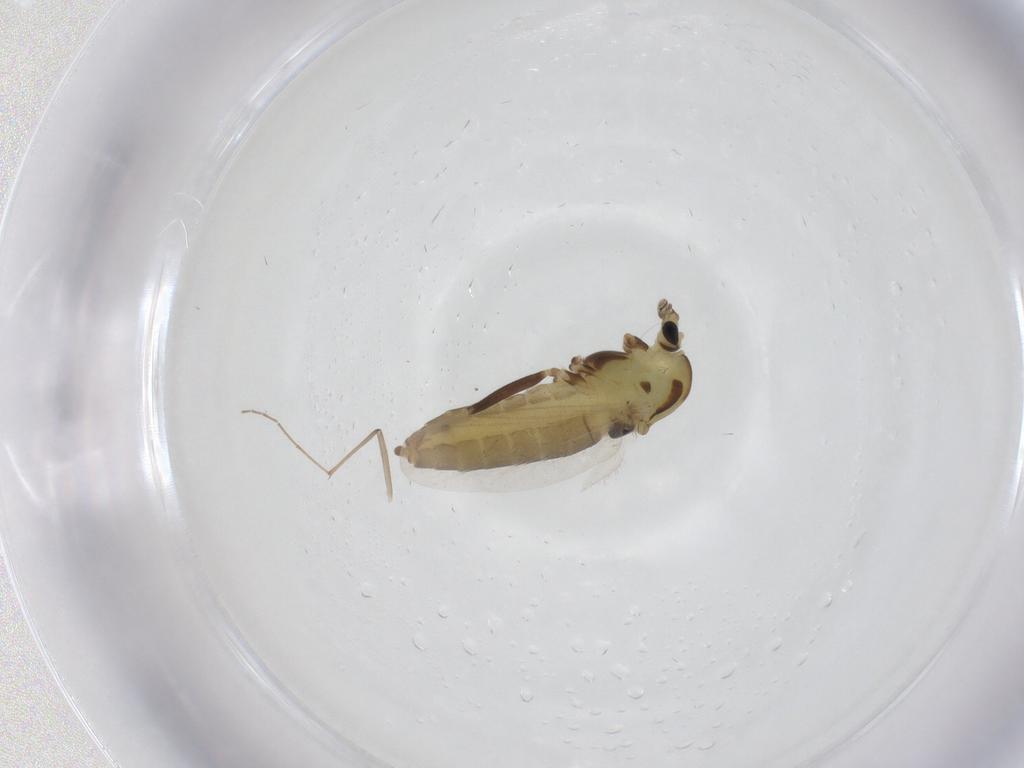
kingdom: Animalia
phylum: Arthropoda
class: Insecta
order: Diptera
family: Chironomidae
